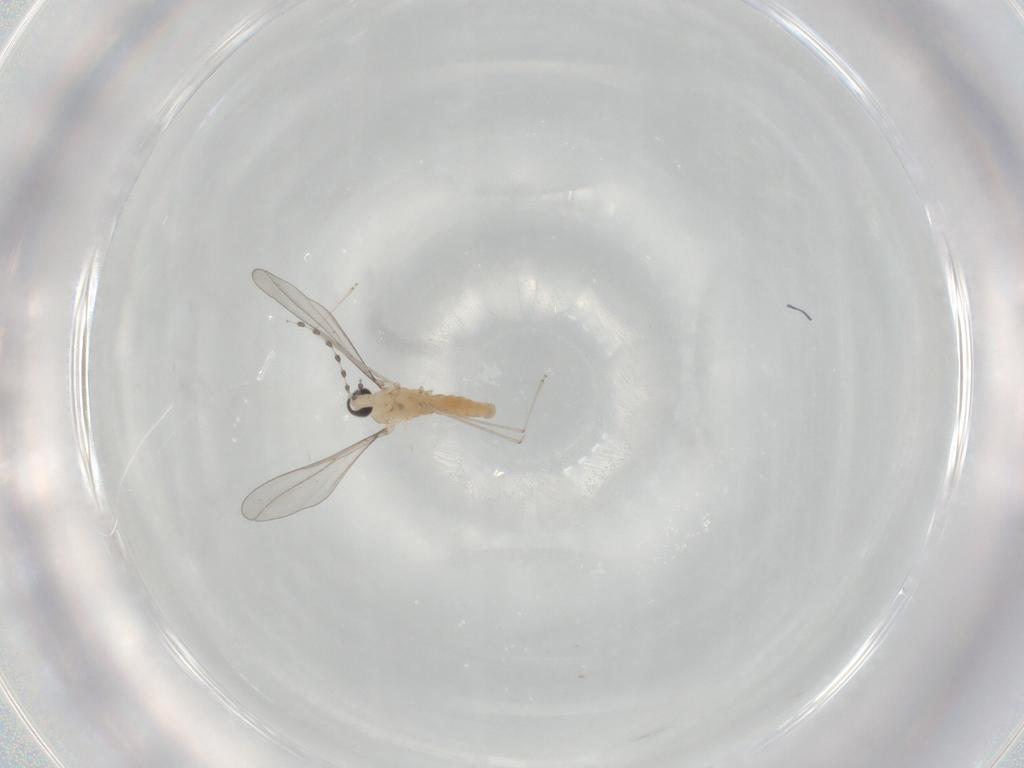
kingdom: Animalia
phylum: Arthropoda
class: Insecta
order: Diptera
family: Cecidomyiidae
